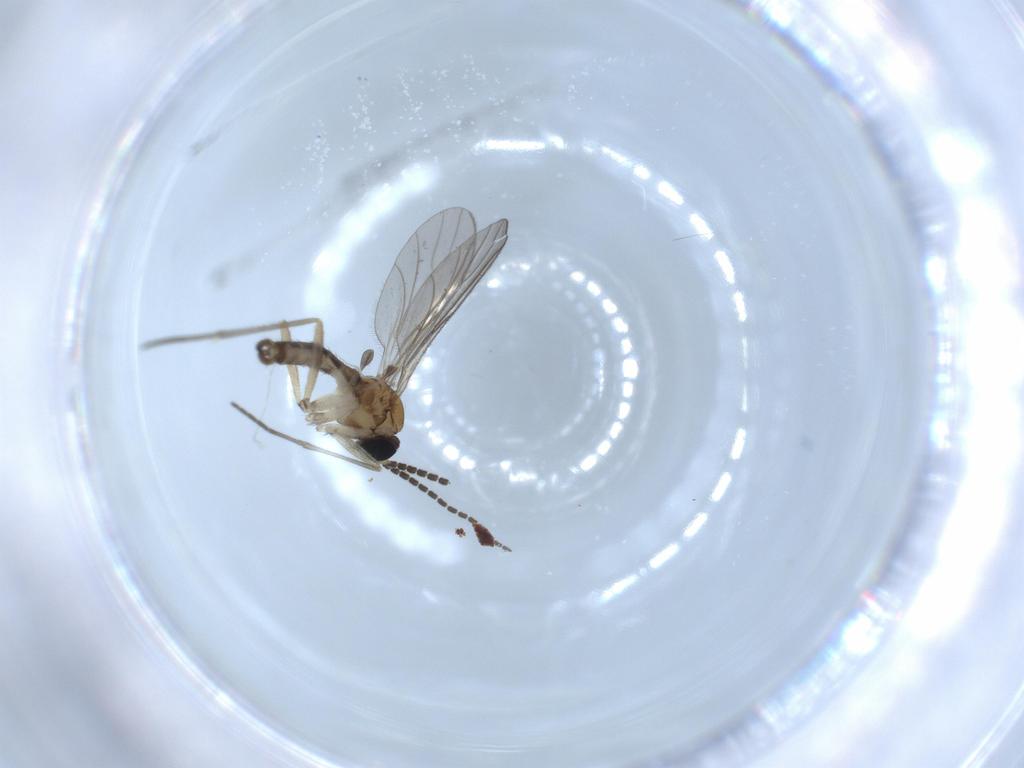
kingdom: Animalia
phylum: Arthropoda
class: Insecta
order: Diptera
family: Sciaridae
